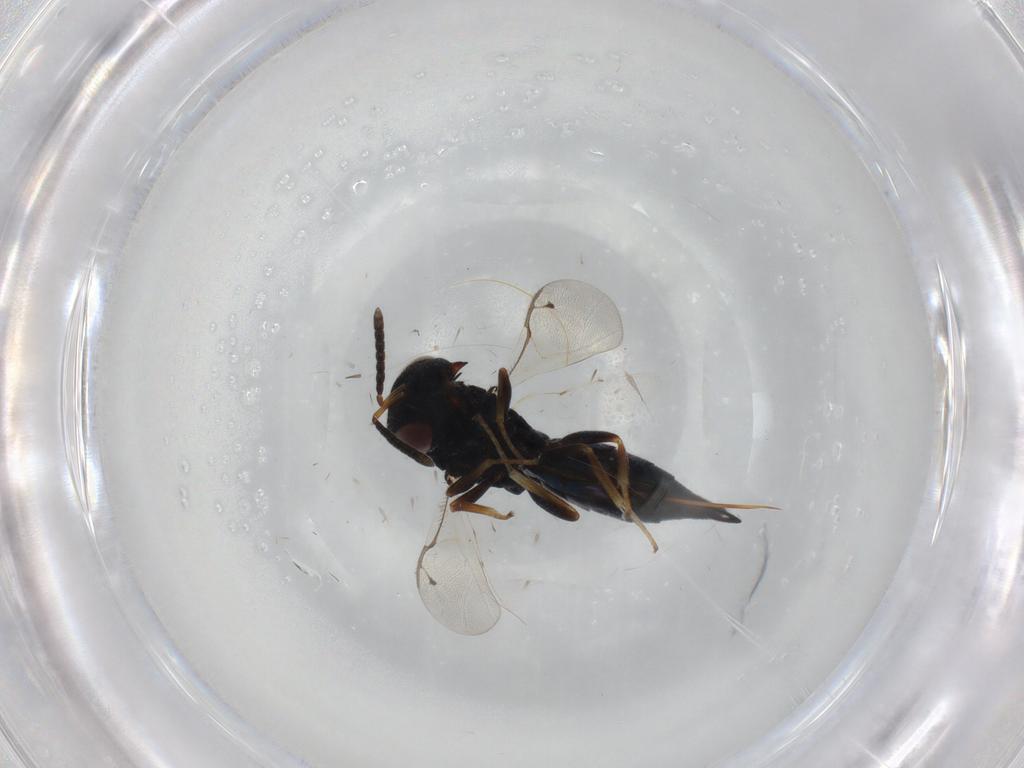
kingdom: Animalia
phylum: Arthropoda
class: Insecta
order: Hymenoptera
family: Pteromalidae
